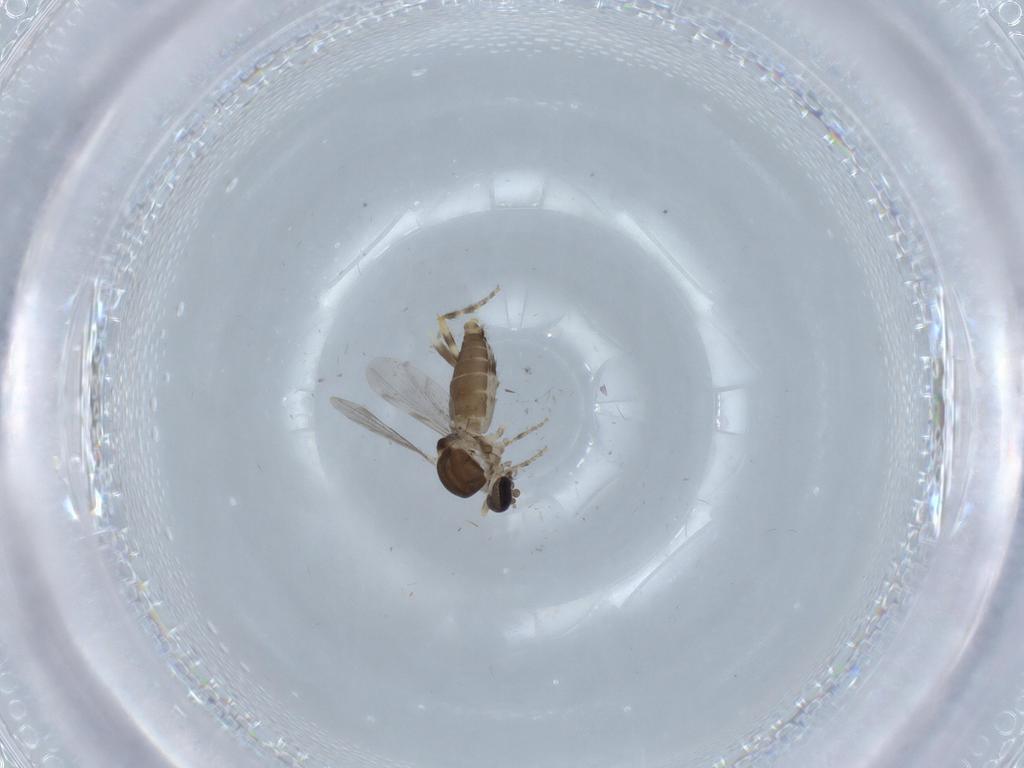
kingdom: Animalia
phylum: Arthropoda
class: Insecta
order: Diptera
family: Ceratopogonidae
